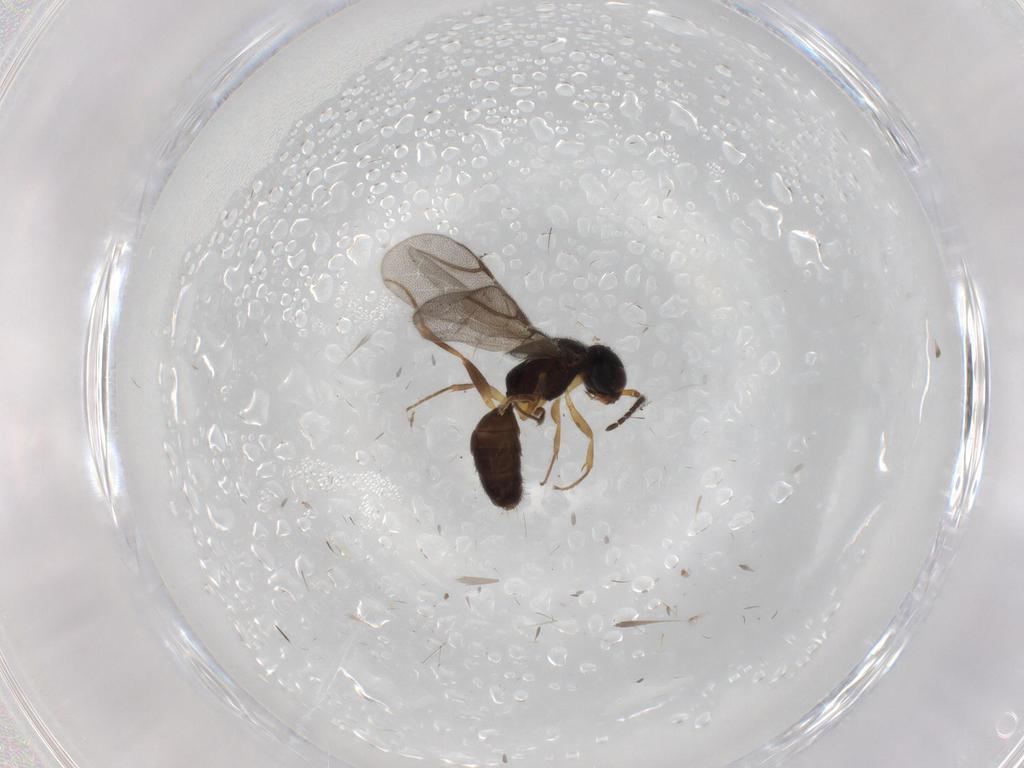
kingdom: Animalia
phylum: Arthropoda
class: Insecta
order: Hymenoptera
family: Bethylidae
